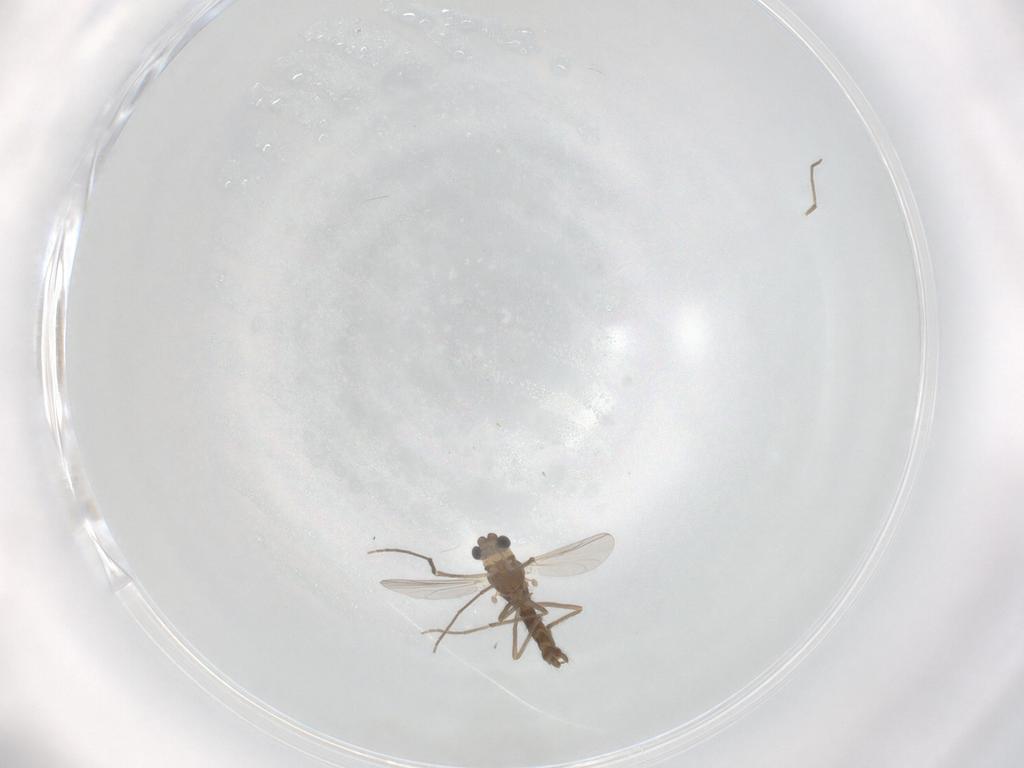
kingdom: Animalia
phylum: Arthropoda
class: Insecta
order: Diptera
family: Chironomidae
